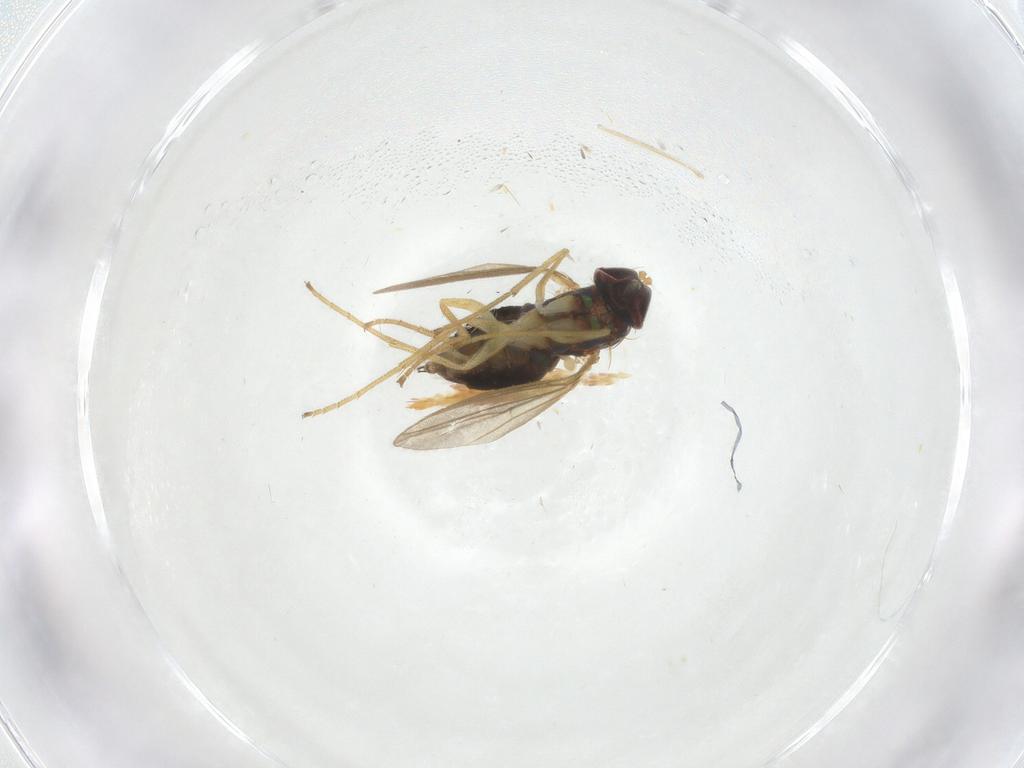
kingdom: Animalia
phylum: Arthropoda
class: Insecta
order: Diptera
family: Dolichopodidae
